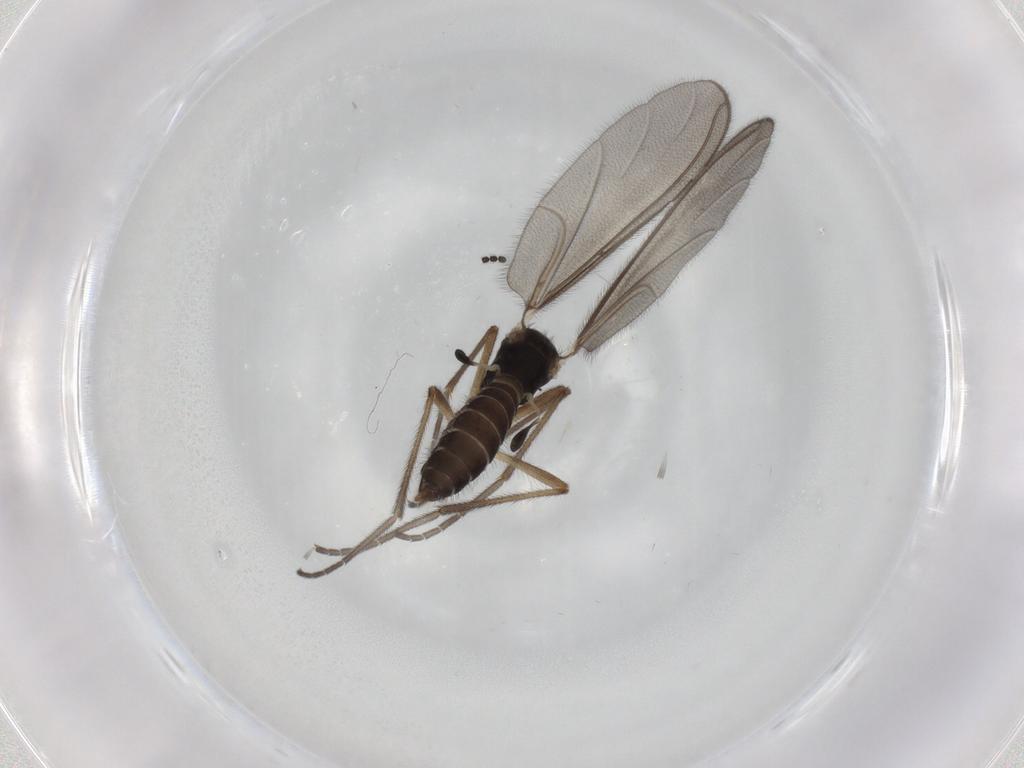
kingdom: Animalia
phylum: Arthropoda
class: Insecta
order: Diptera
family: Mycetophilidae
